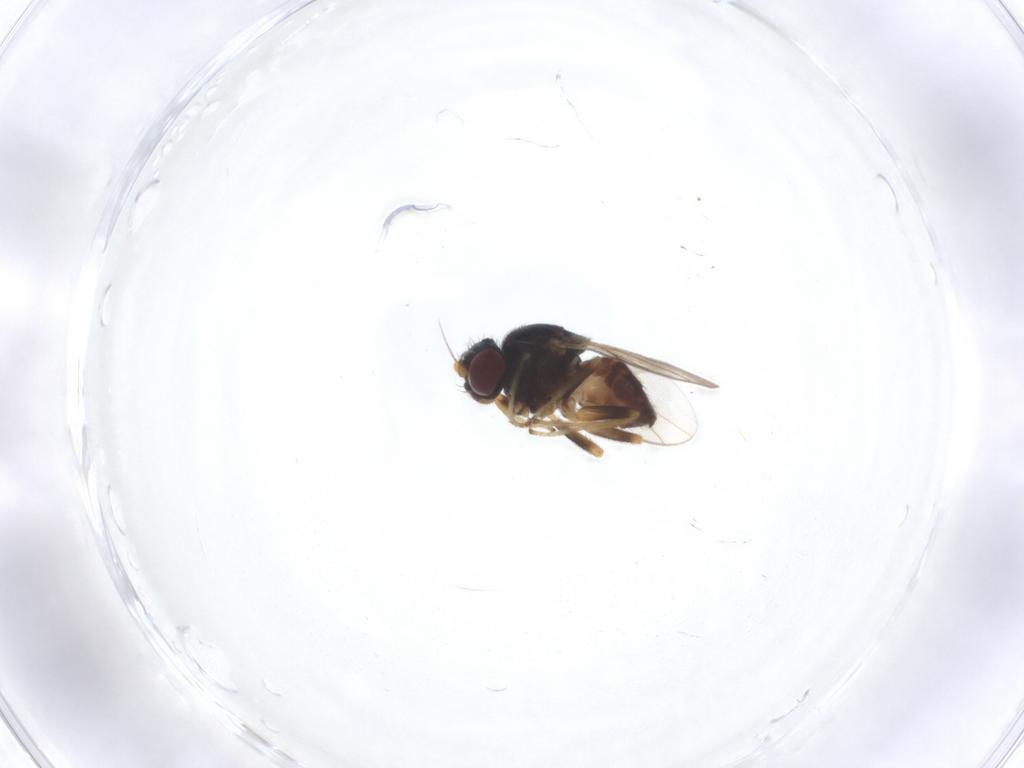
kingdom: Animalia
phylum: Arthropoda
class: Insecta
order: Diptera
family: Chloropidae
